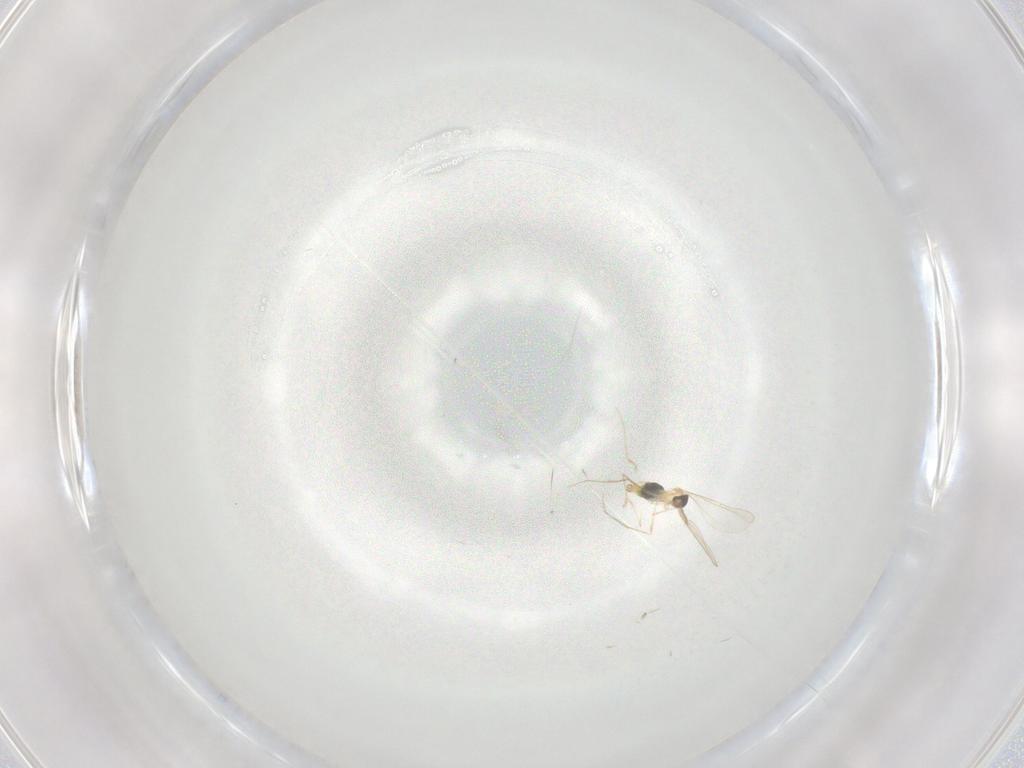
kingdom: Animalia
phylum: Arthropoda
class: Insecta
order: Diptera
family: Cecidomyiidae
